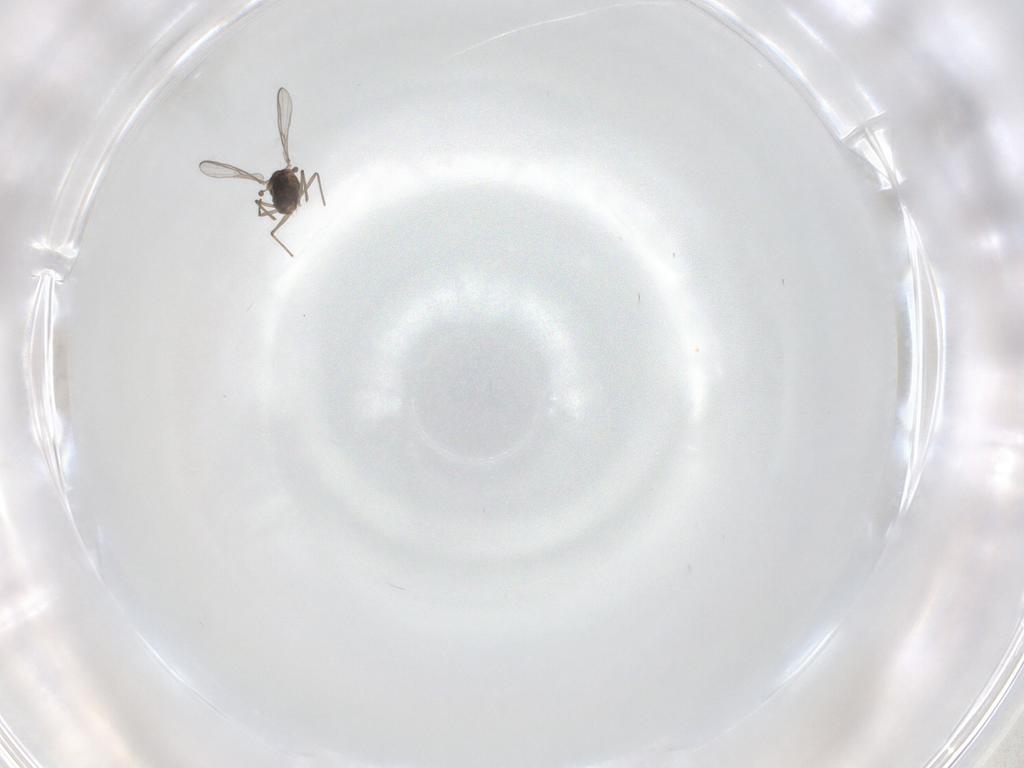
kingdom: Animalia
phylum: Arthropoda
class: Insecta
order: Diptera
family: Chironomidae
